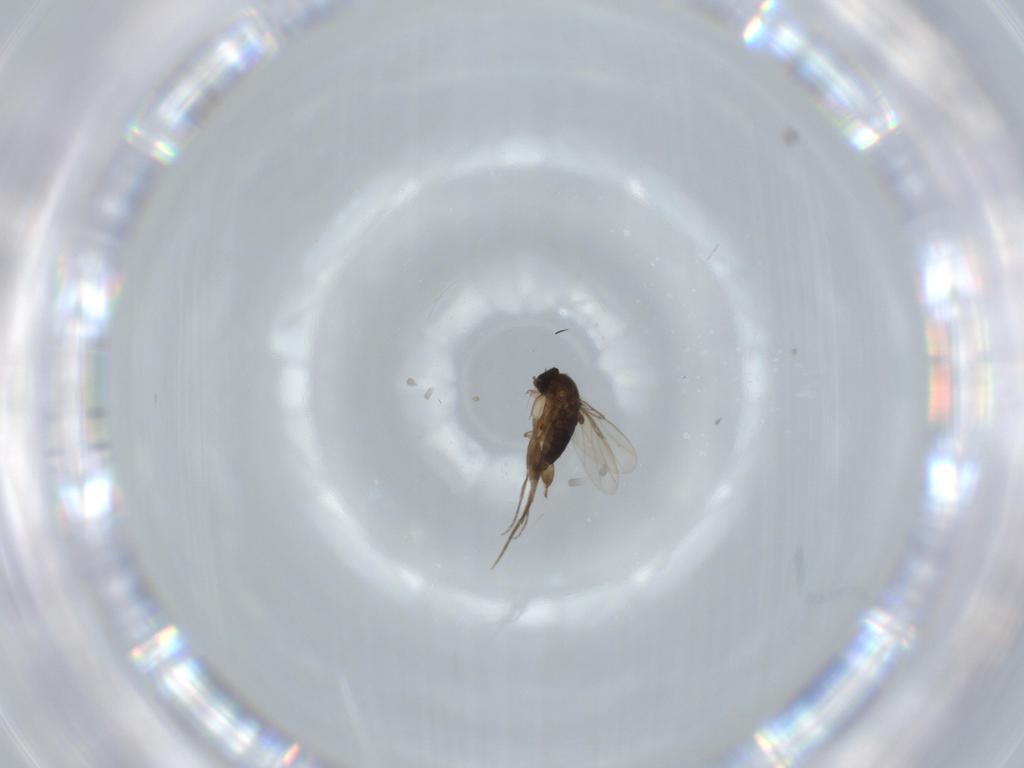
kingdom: Animalia
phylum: Arthropoda
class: Insecta
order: Diptera
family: Phoridae
